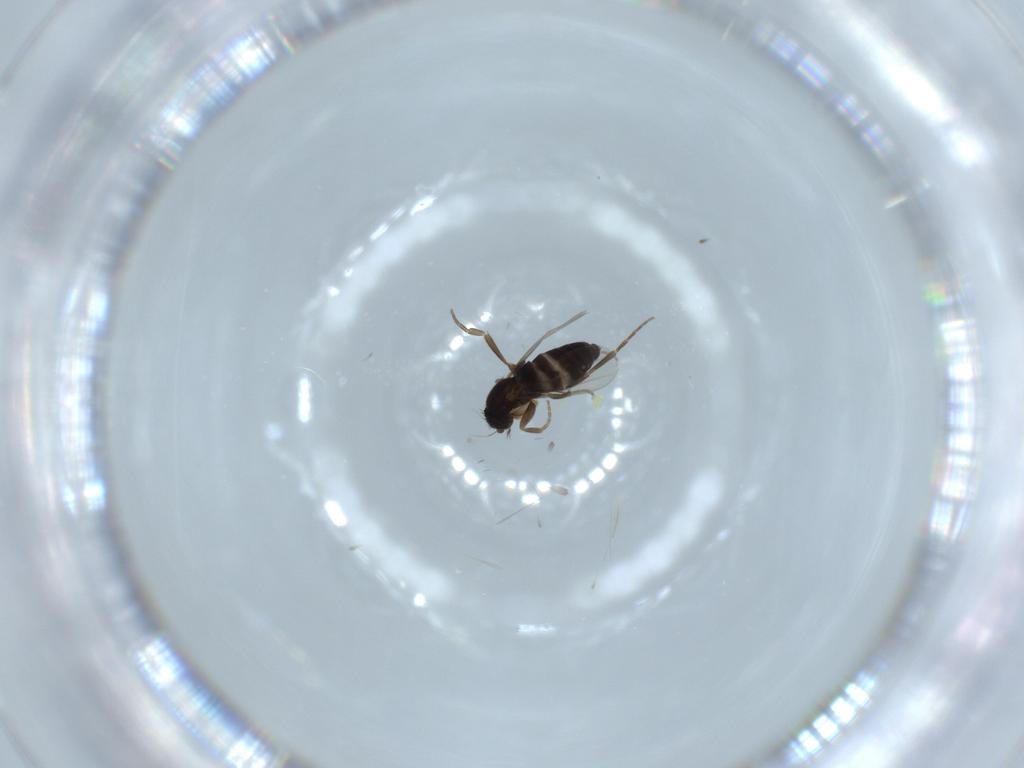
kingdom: Animalia
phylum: Arthropoda
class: Insecta
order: Diptera
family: Phoridae
